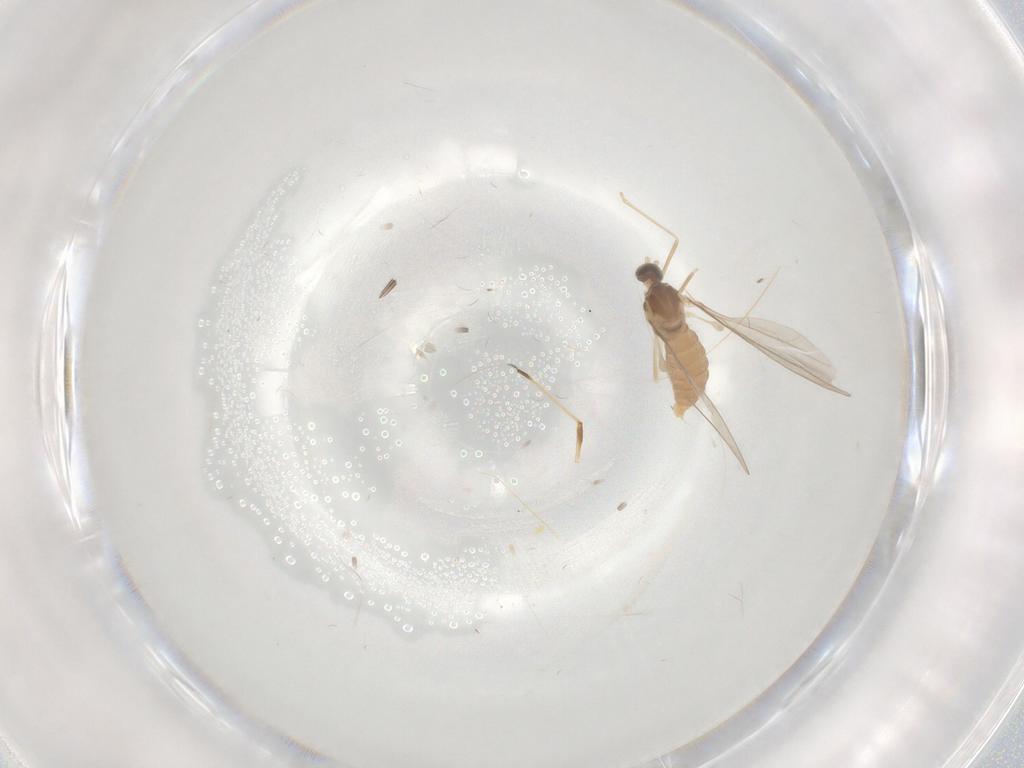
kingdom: Animalia
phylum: Arthropoda
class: Insecta
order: Diptera
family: Cecidomyiidae
